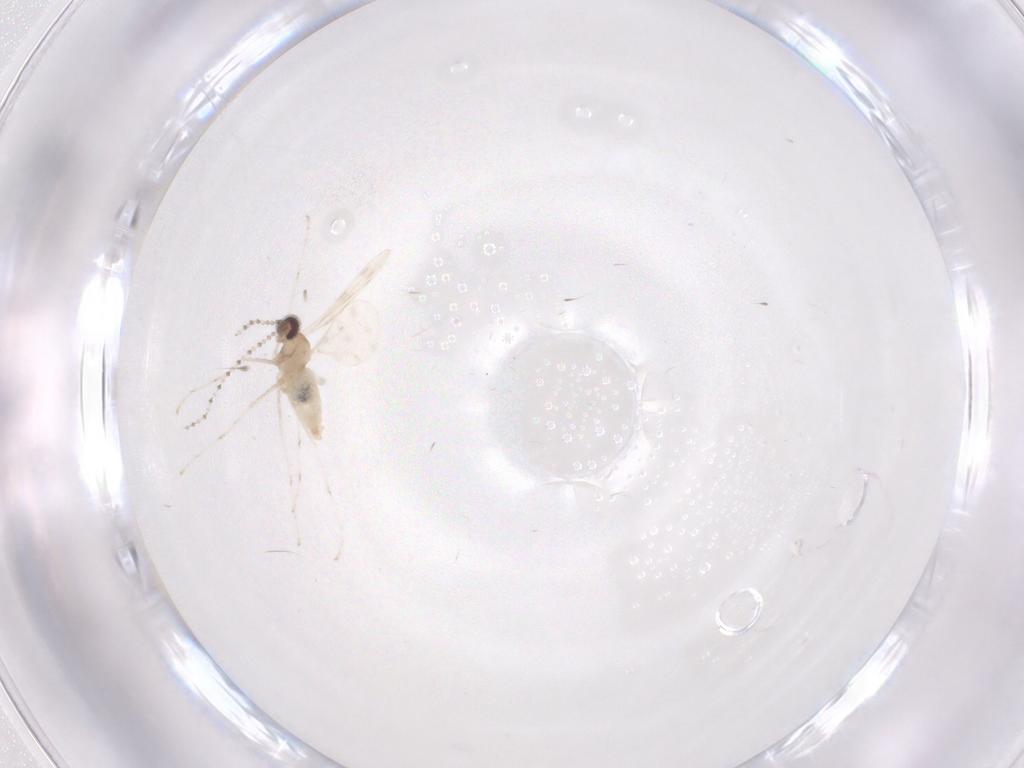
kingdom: Animalia
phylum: Arthropoda
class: Insecta
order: Diptera
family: Cecidomyiidae
